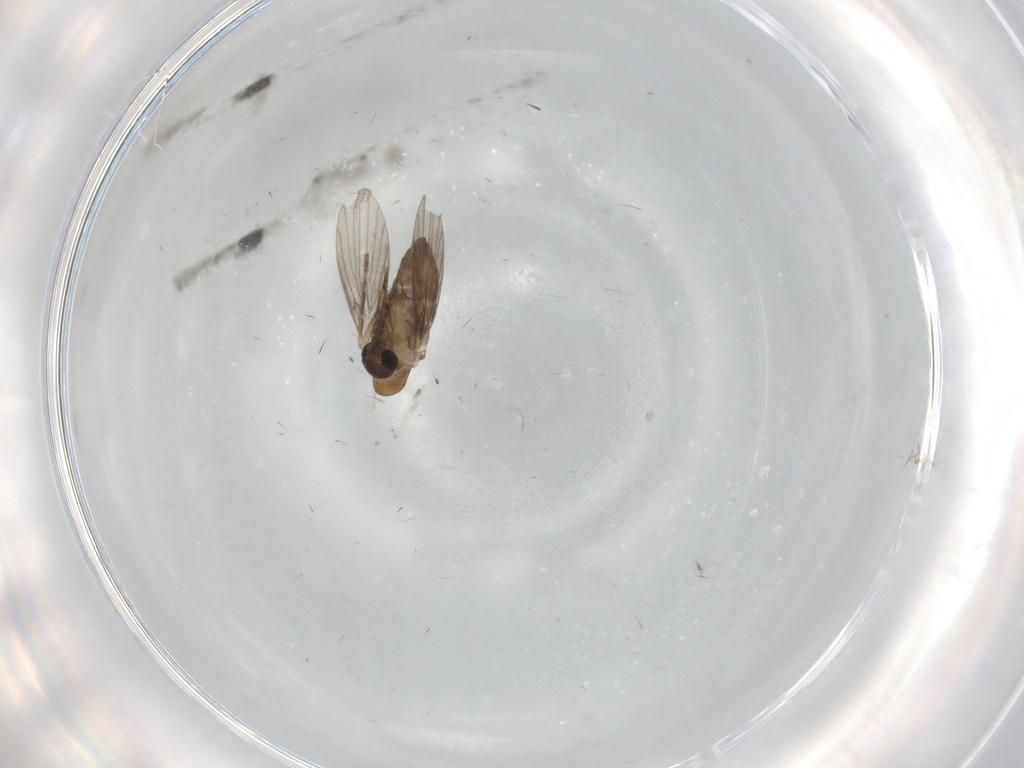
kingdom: Animalia
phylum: Arthropoda
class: Insecta
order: Diptera
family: Cecidomyiidae
